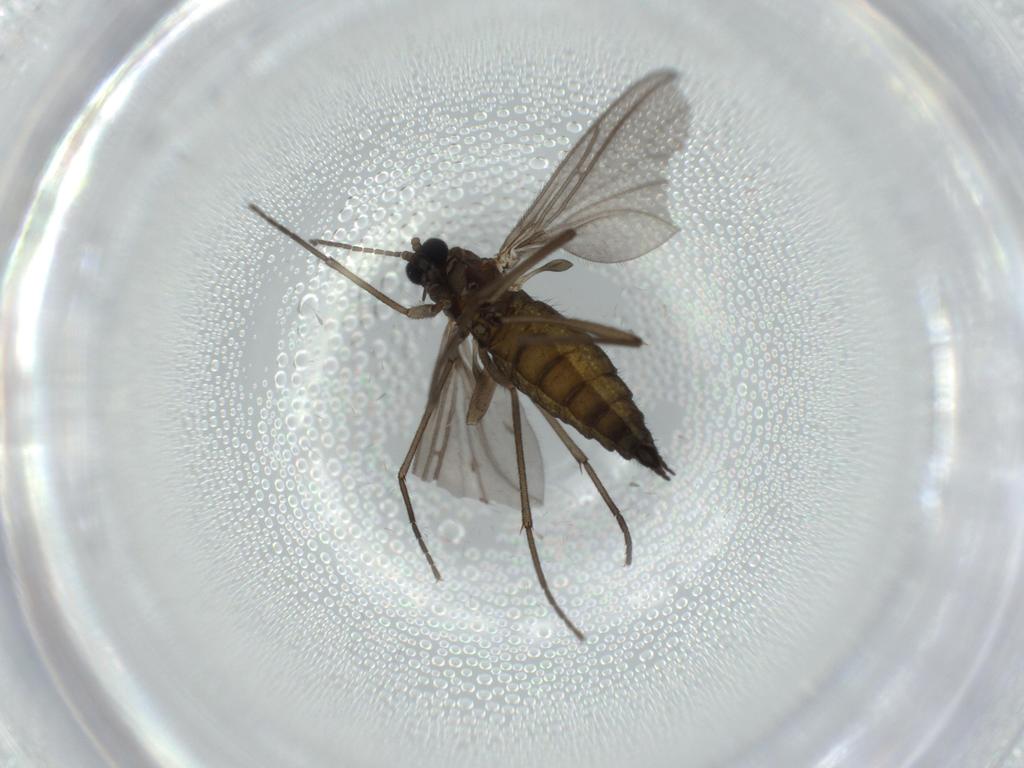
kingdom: Animalia
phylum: Arthropoda
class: Insecta
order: Diptera
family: Sciaridae
